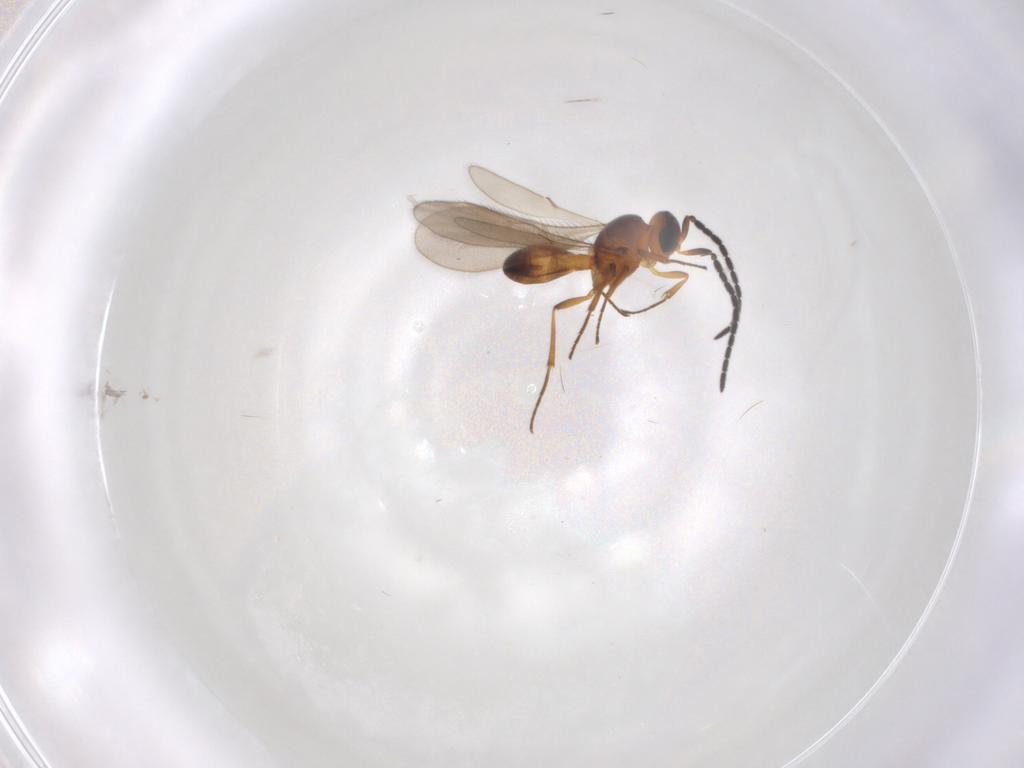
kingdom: Animalia
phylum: Arthropoda
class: Insecta
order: Hymenoptera
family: Scelionidae
